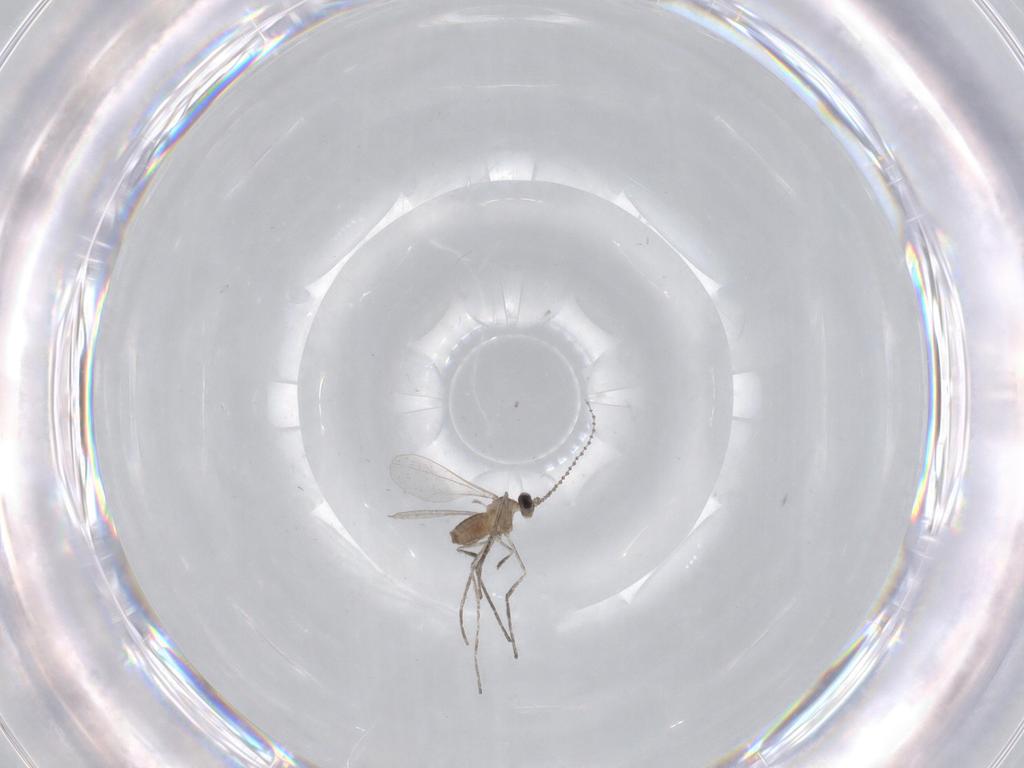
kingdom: Animalia
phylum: Arthropoda
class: Insecta
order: Diptera
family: Cecidomyiidae
